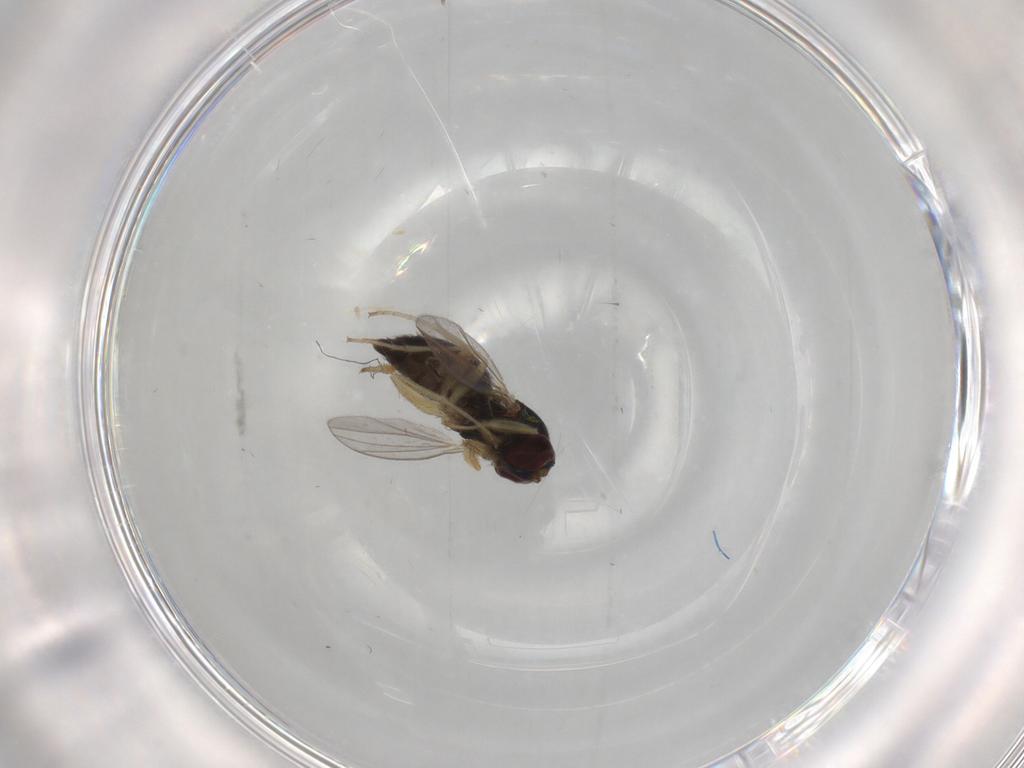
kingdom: Animalia
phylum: Arthropoda
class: Insecta
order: Diptera
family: Dolichopodidae
